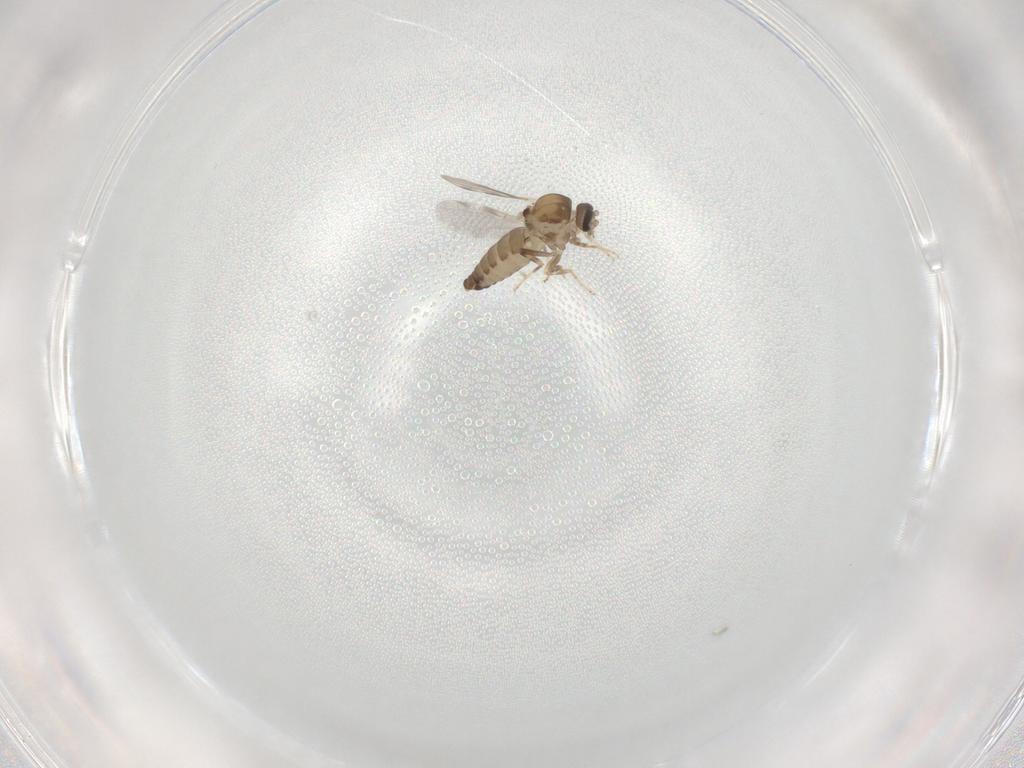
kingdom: Animalia
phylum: Arthropoda
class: Insecta
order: Diptera
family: Ceratopogonidae
